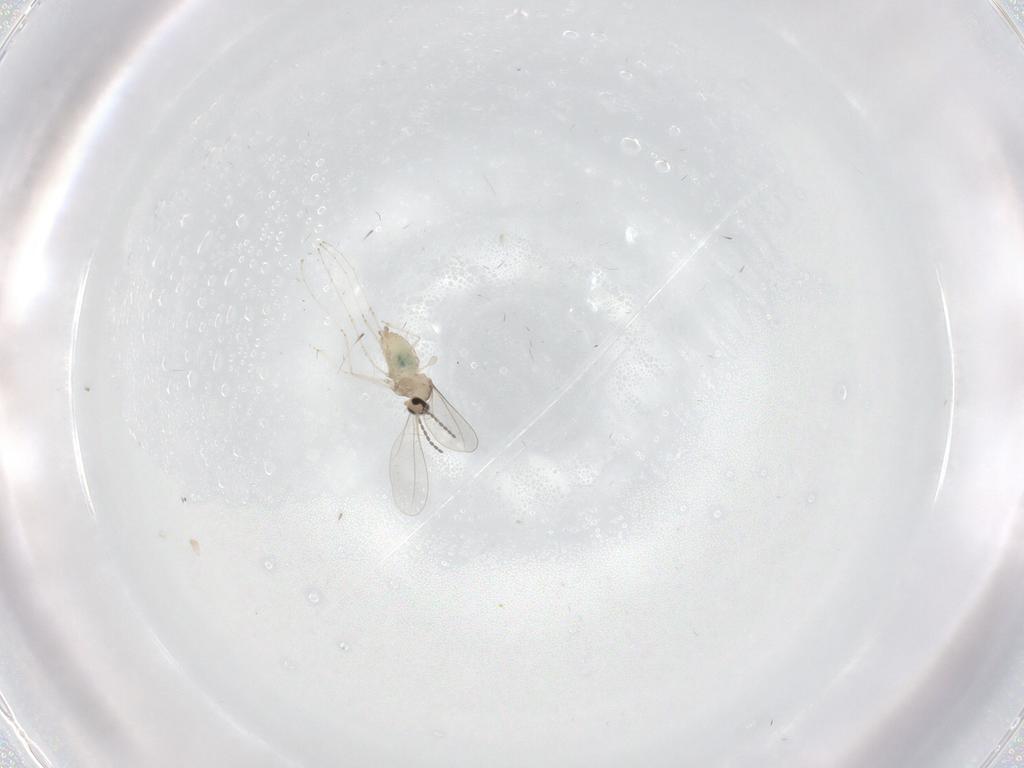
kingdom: Animalia
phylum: Arthropoda
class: Insecta
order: Diptera
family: Cecidomyiidae
